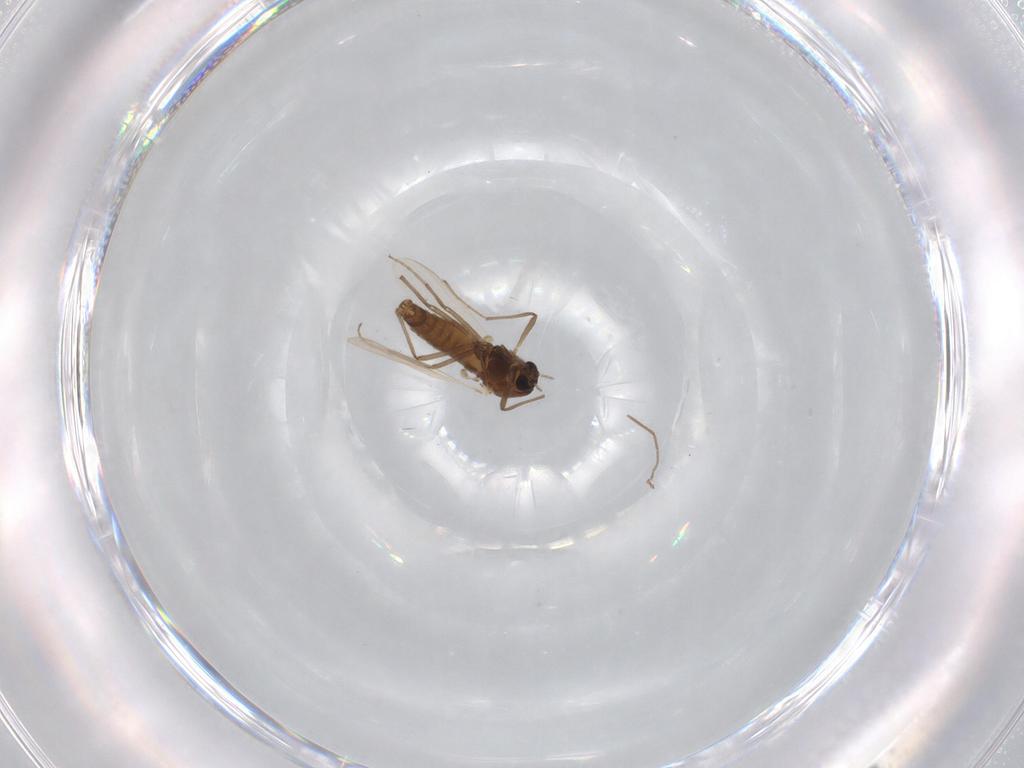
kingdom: Animalia
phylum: Arthropoda
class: Insecta
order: Diptera
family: Chironomidae
